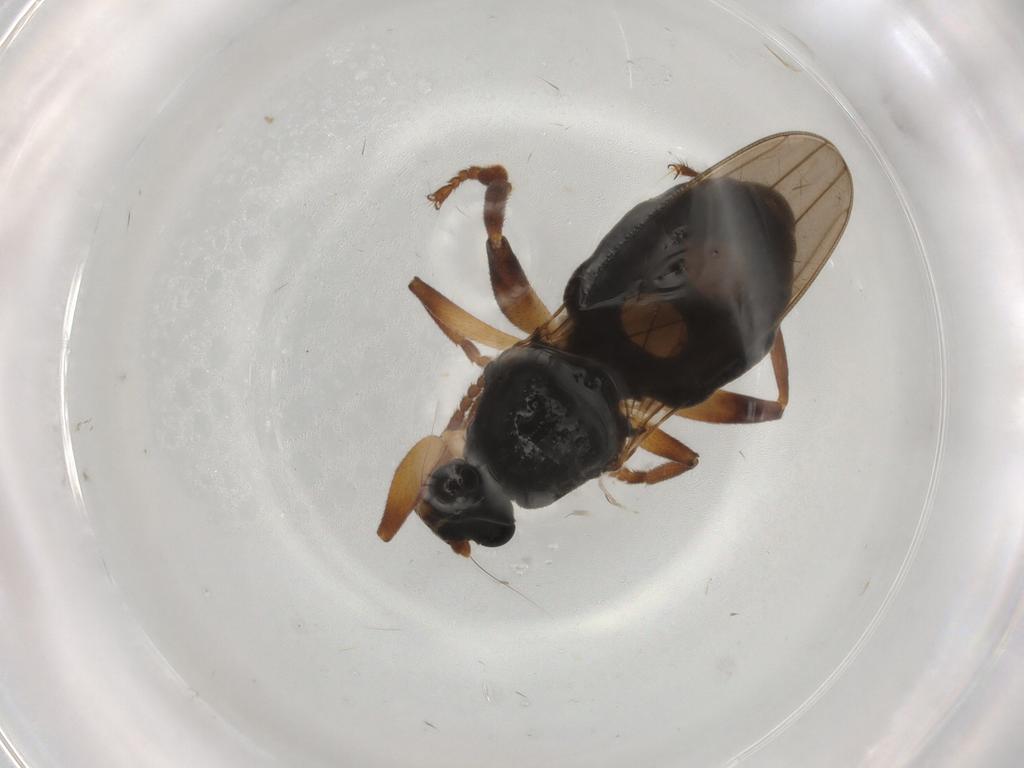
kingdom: Animalia
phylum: Arthropoda
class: Insecta
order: Diptera
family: Sphaeroceridae
